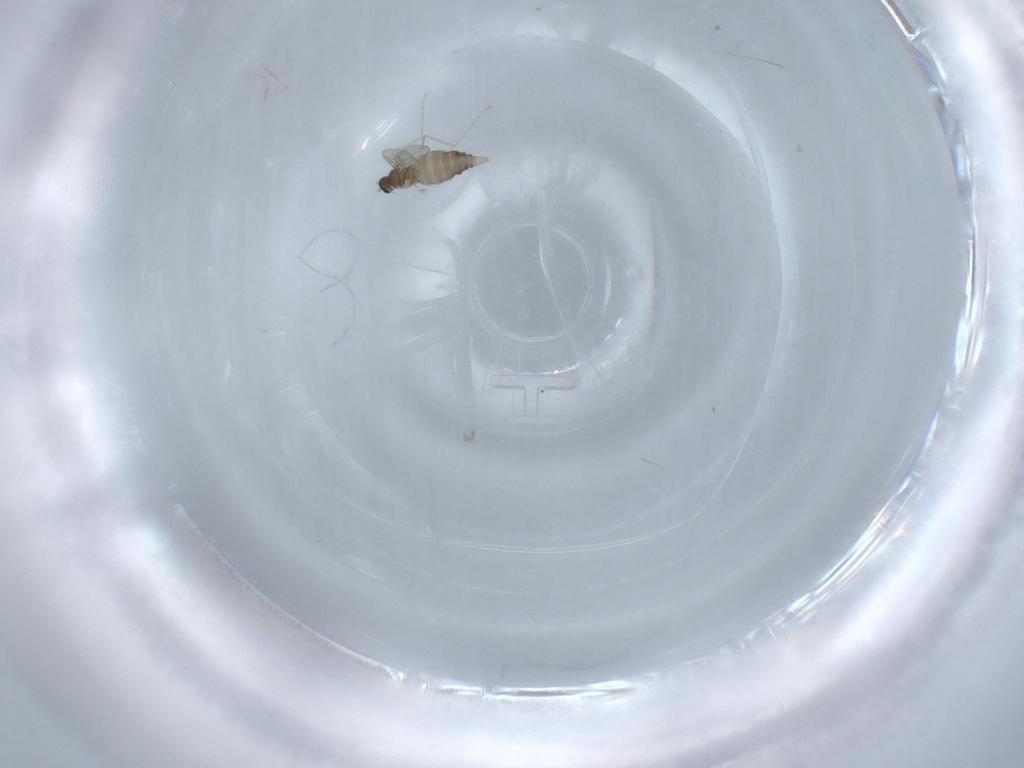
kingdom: Animalia
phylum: Arthropoda
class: Insecta
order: Diptera
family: Cecidomyiidae
